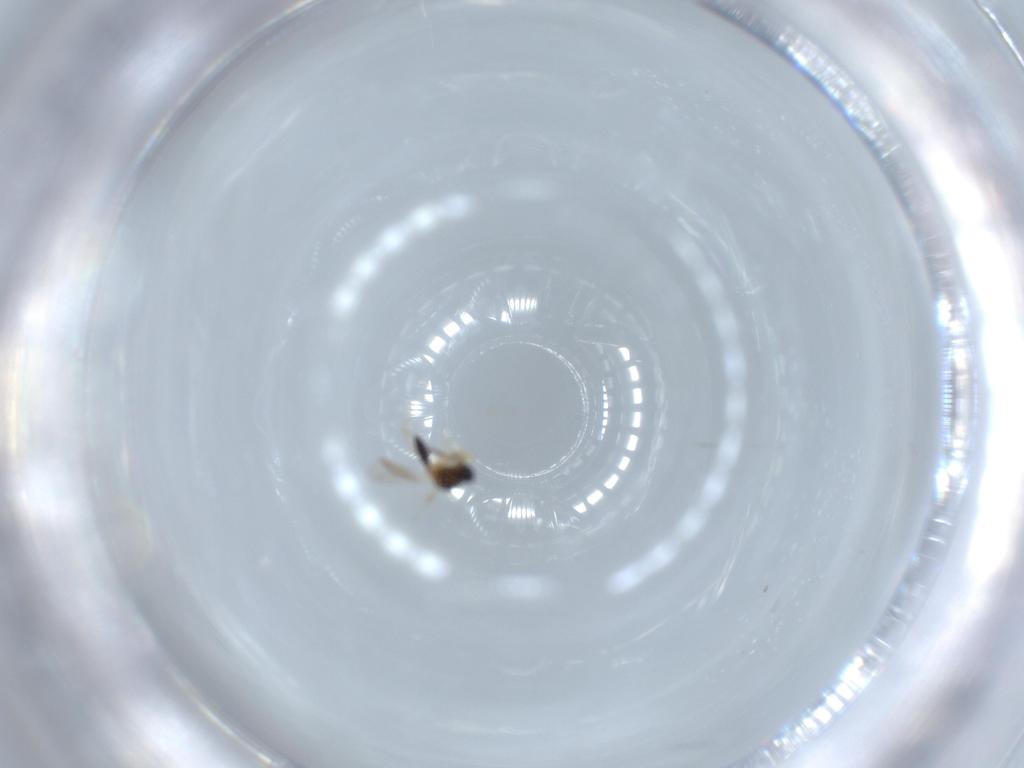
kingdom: Animalia
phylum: Arthropoda
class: Insecta
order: Hymenoptera
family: Platygastridae
